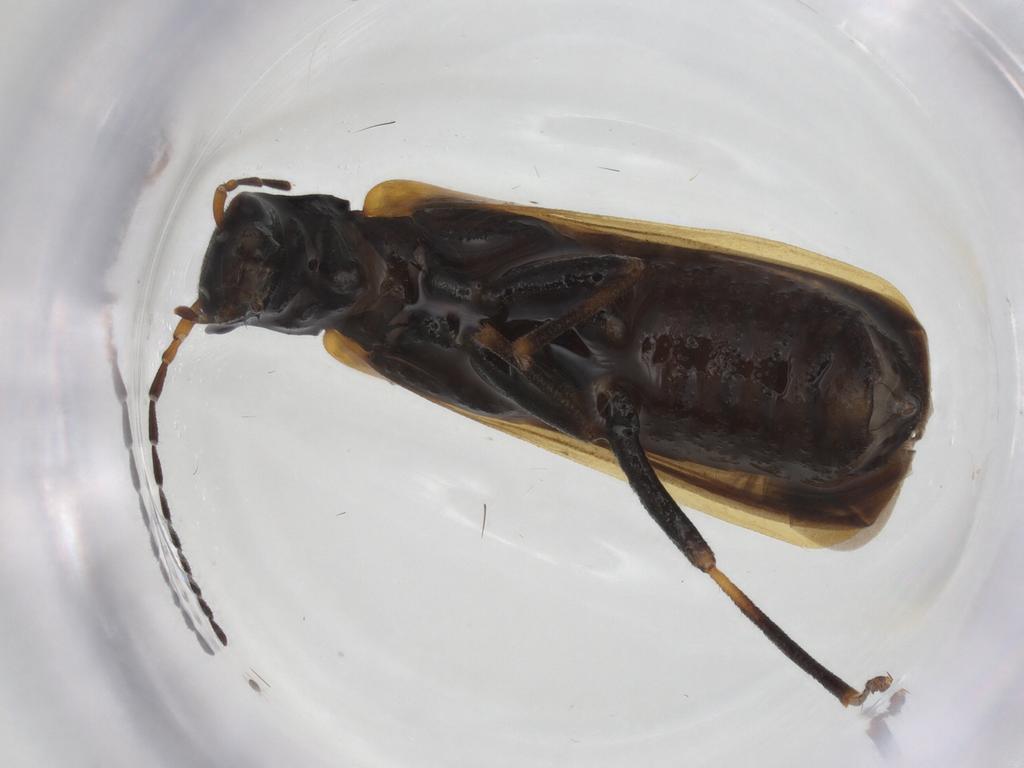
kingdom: Animalia
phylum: Arthropoda
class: Insecta
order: Coleoptera
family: Cantharidae
